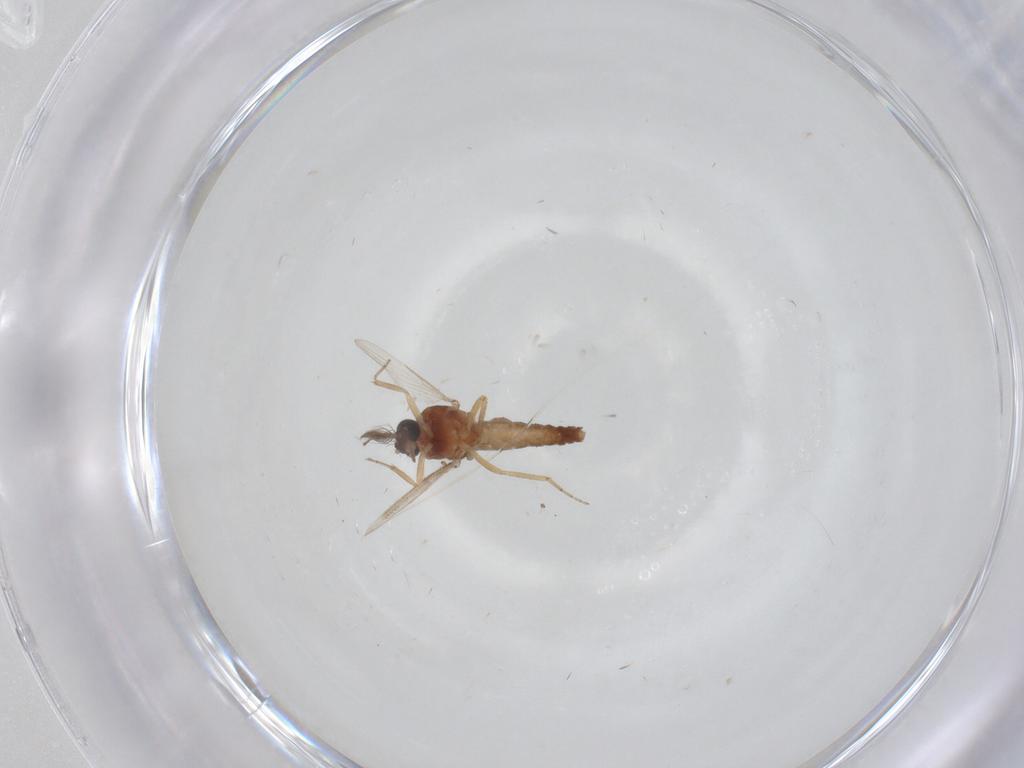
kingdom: Animalia
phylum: Arthropoda
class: Insecta
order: Diptera
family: Ceratopogonidae
